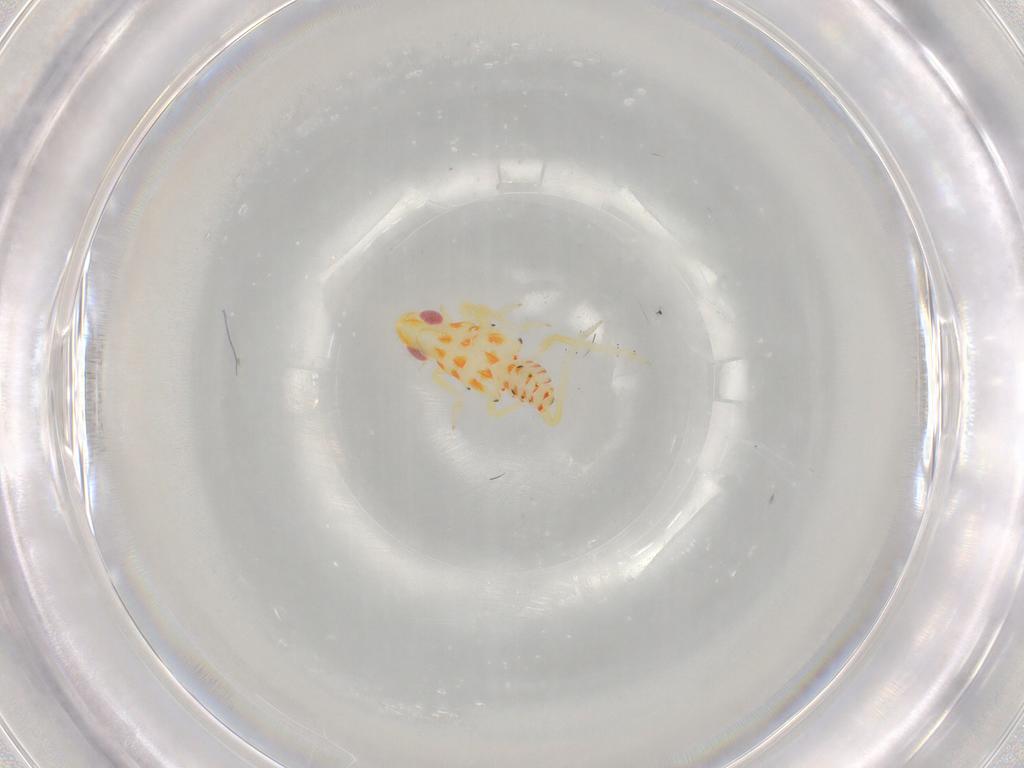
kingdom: Animalia
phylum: Arthropoda
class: Insecta
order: Hemiptera
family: Tropiduchidae
